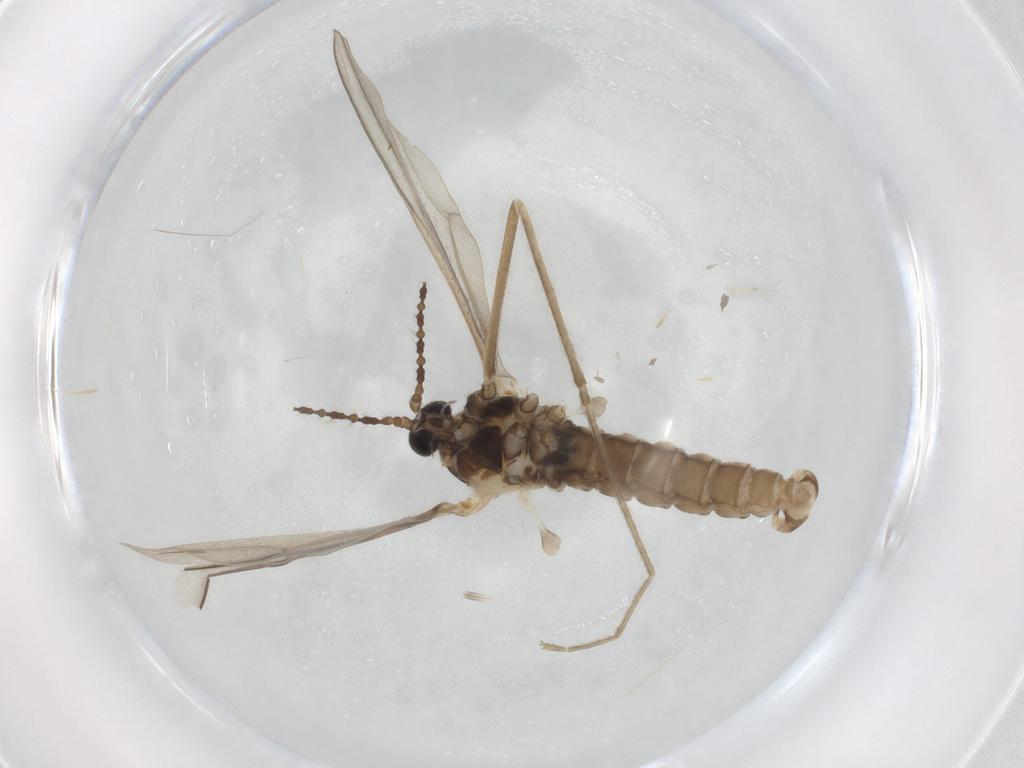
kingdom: Animalia
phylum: Arthropoda
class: Insecta
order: Diptera
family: Cecidomyiidae
